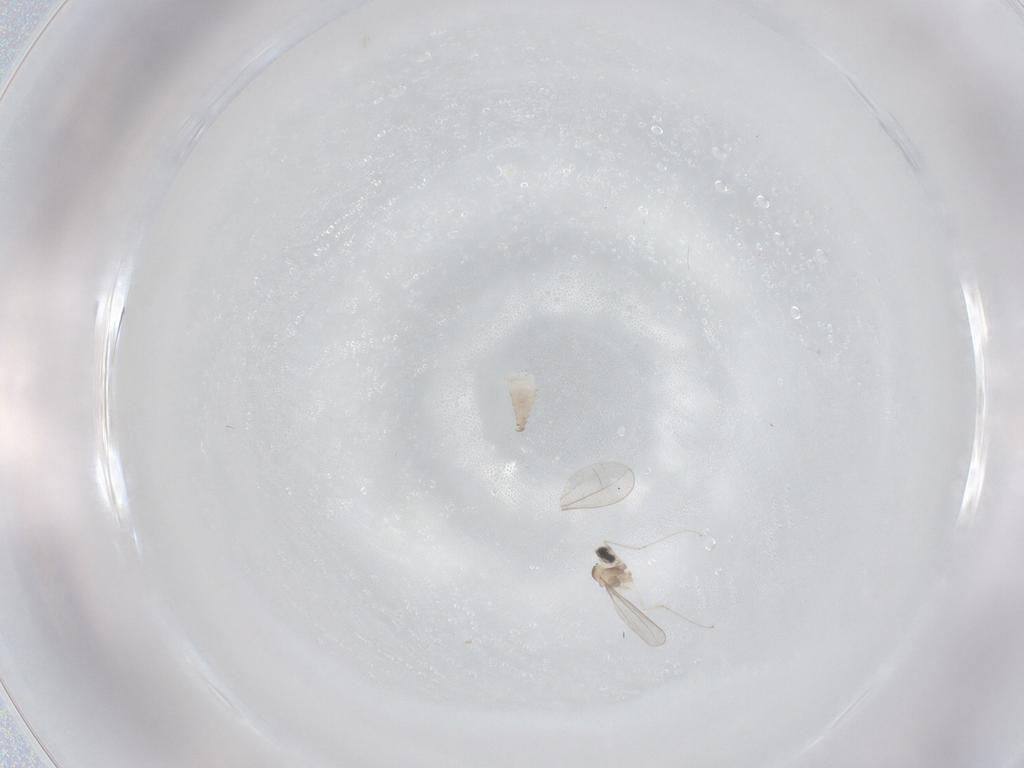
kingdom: Animalia
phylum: Arthropoda
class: Insecta
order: Diptera
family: Cecidomyiidae
